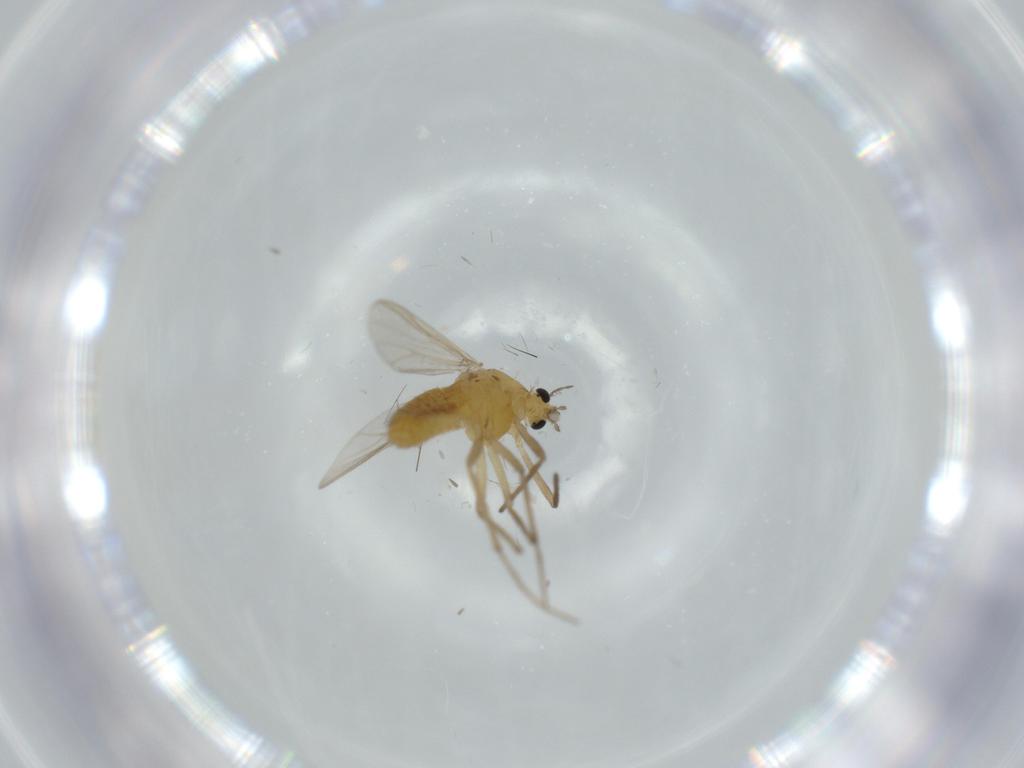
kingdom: Animalia
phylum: Arthropoda
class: Insecta
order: Diptera
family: Chironomidae
